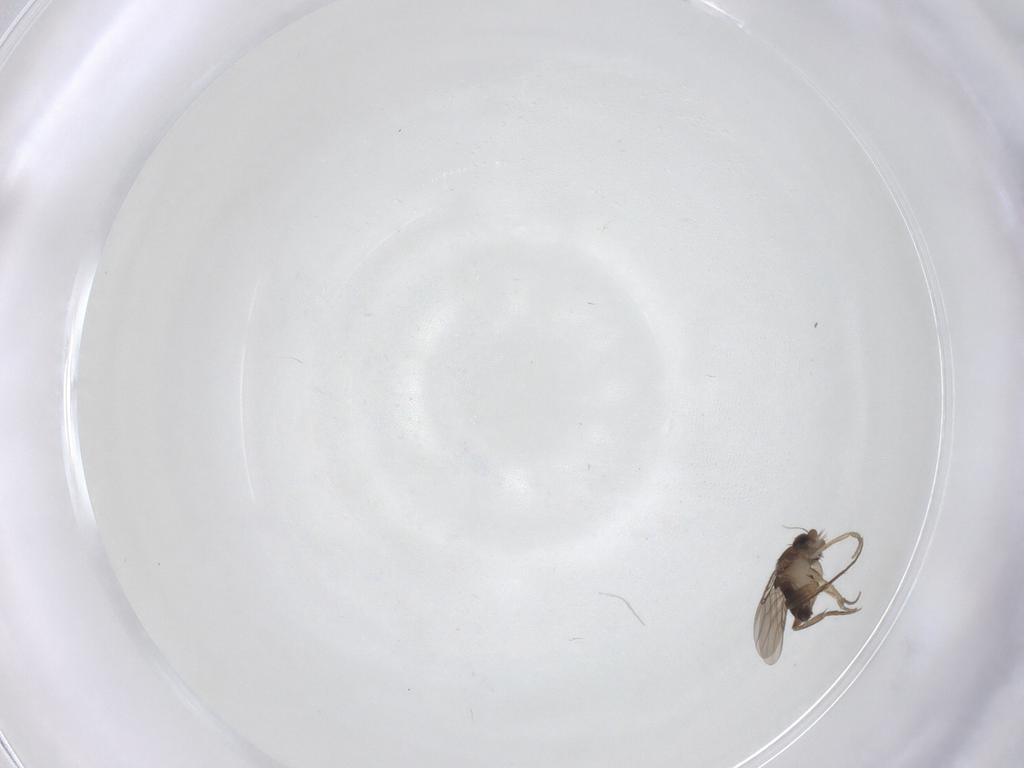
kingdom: Animalia
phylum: Arthropoda
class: Insecta
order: Diptera
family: Phoridae
